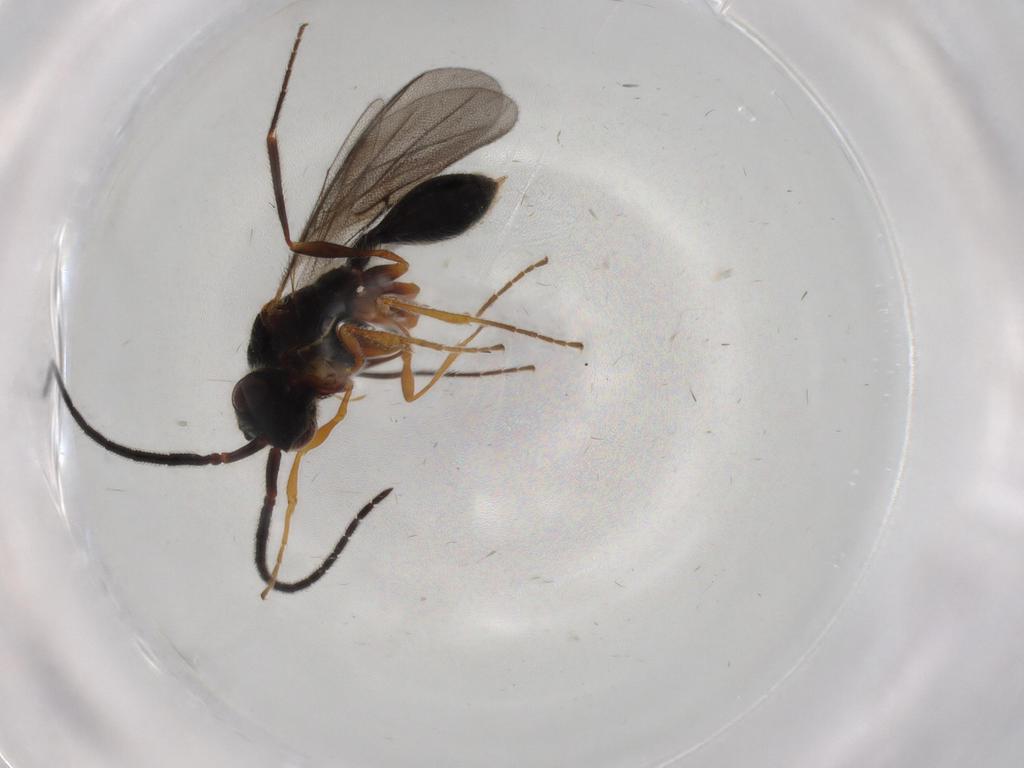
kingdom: Animalia
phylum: Arthropoda
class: Insecta
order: Hymenoptera
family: Diapriidae
